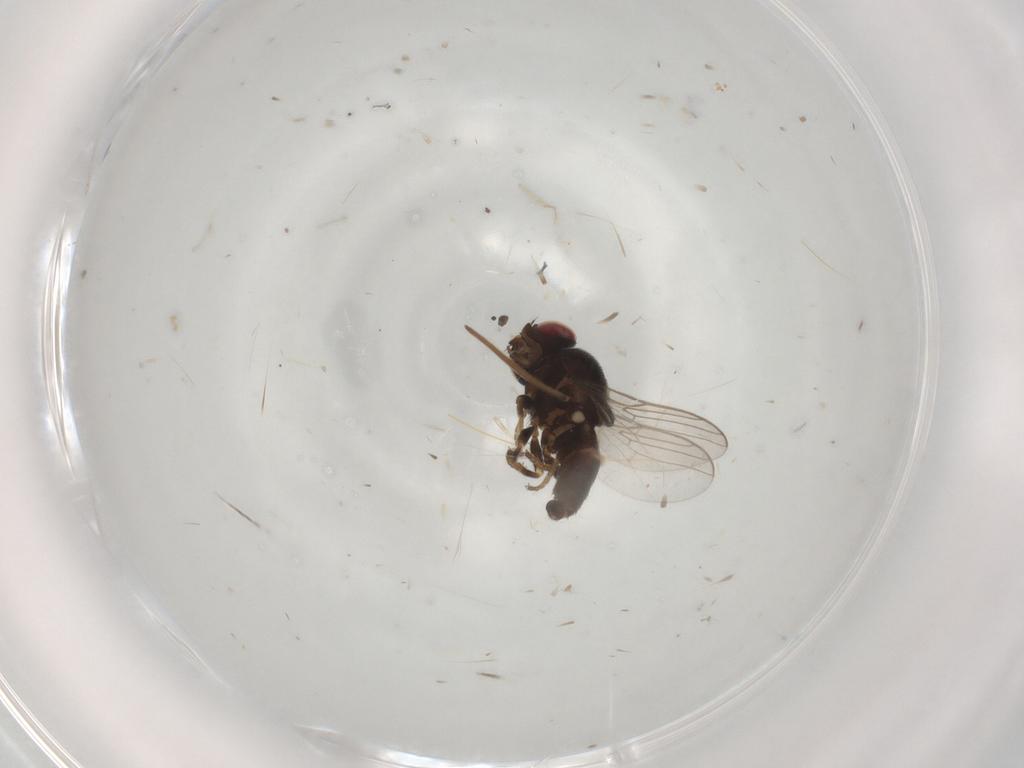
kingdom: Animalia
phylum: Arthropoda
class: Insecta
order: Diptera
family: Chloropidae
